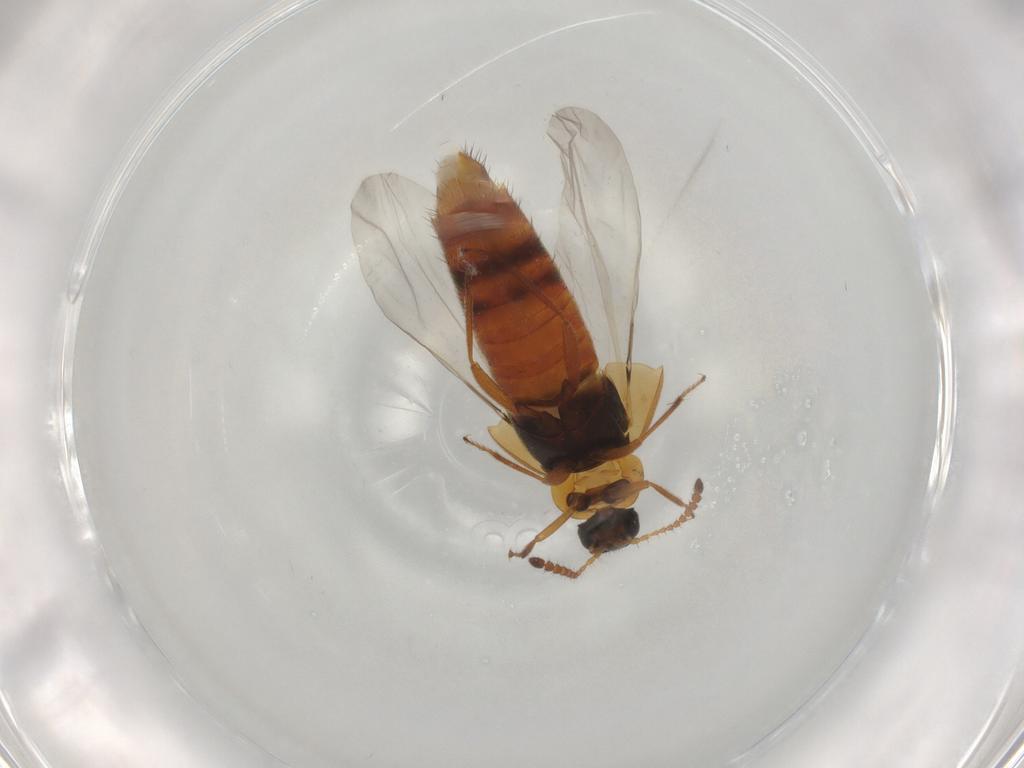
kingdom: Animalia
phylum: Arthropoda
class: Insecta
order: Coleoptera
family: Staphylinidae
